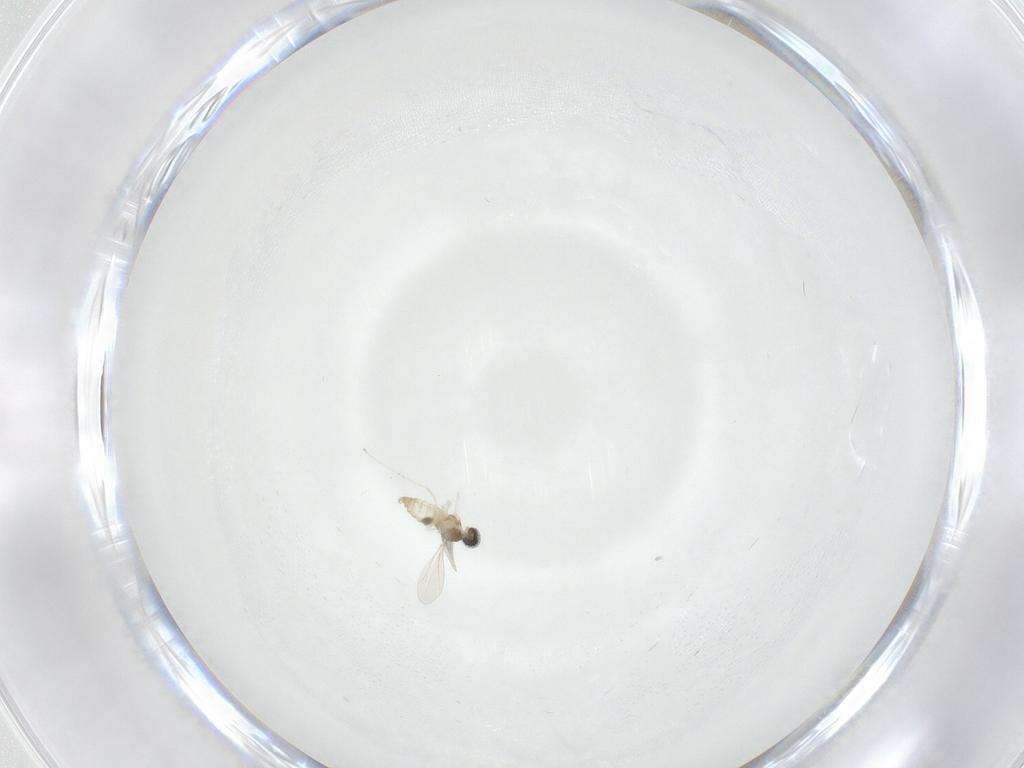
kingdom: Animalia
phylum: Arthropoda
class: Insecta
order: Diptera
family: Cecidomyiidae
